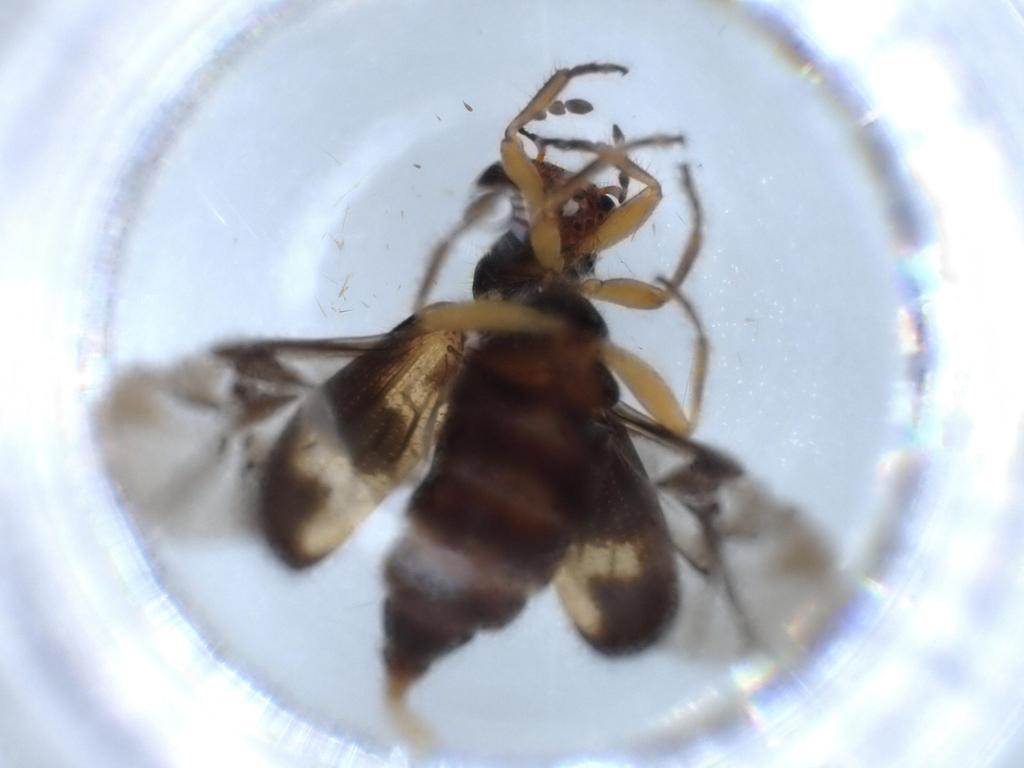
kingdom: Animalia
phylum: Arthropoda
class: Insecta
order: Coleoptera
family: Cleridae
